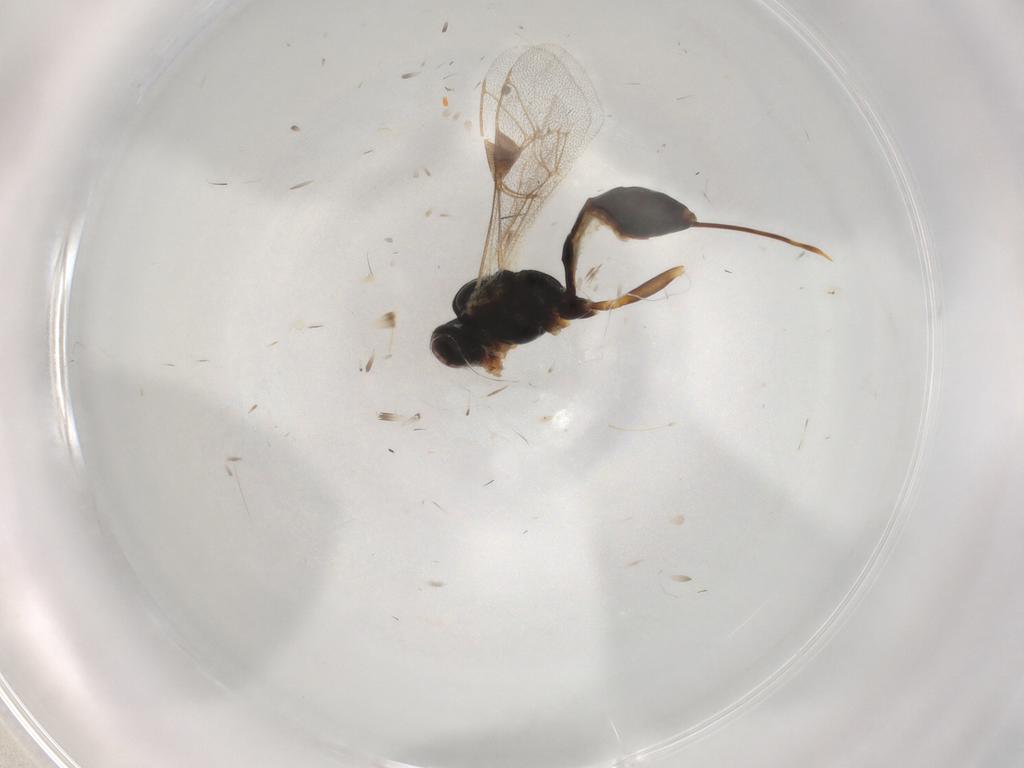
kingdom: Animalia
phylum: Arthropoda
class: Insecta
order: Hymenoptera
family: Ichneumonidae
